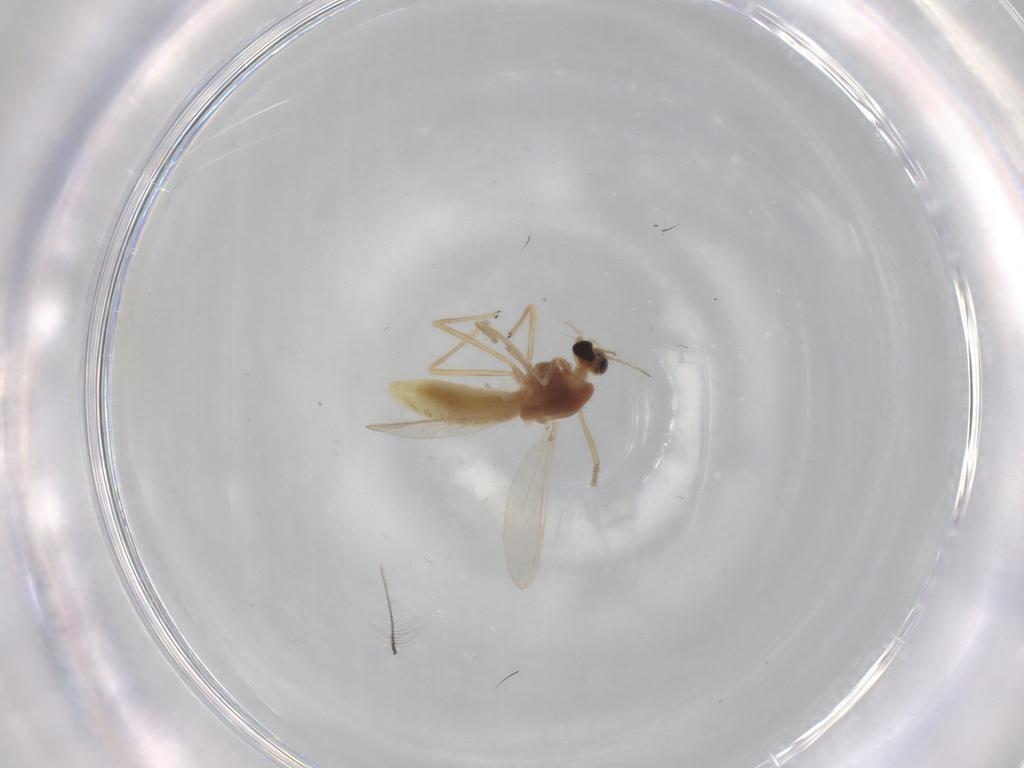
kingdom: Animalia
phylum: Arthropoda
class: Insecta
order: Diptera
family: Chironomidae
